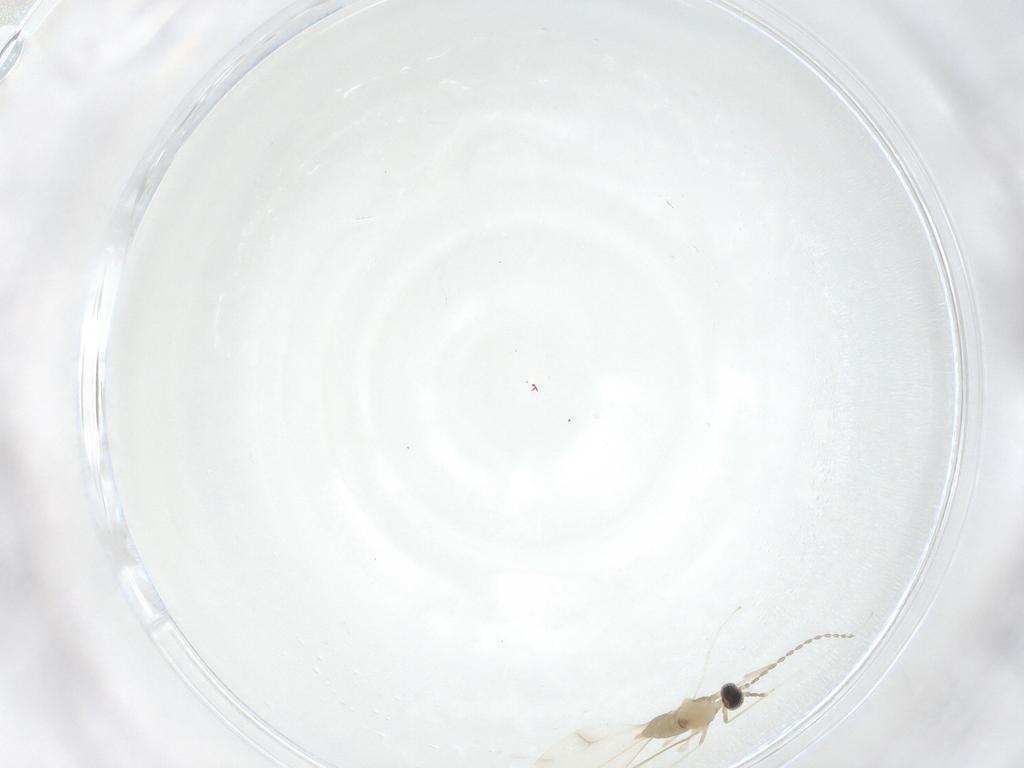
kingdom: Animalia
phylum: Arthropoda
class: Insecta
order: Diptera
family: Cecidomyiidae
